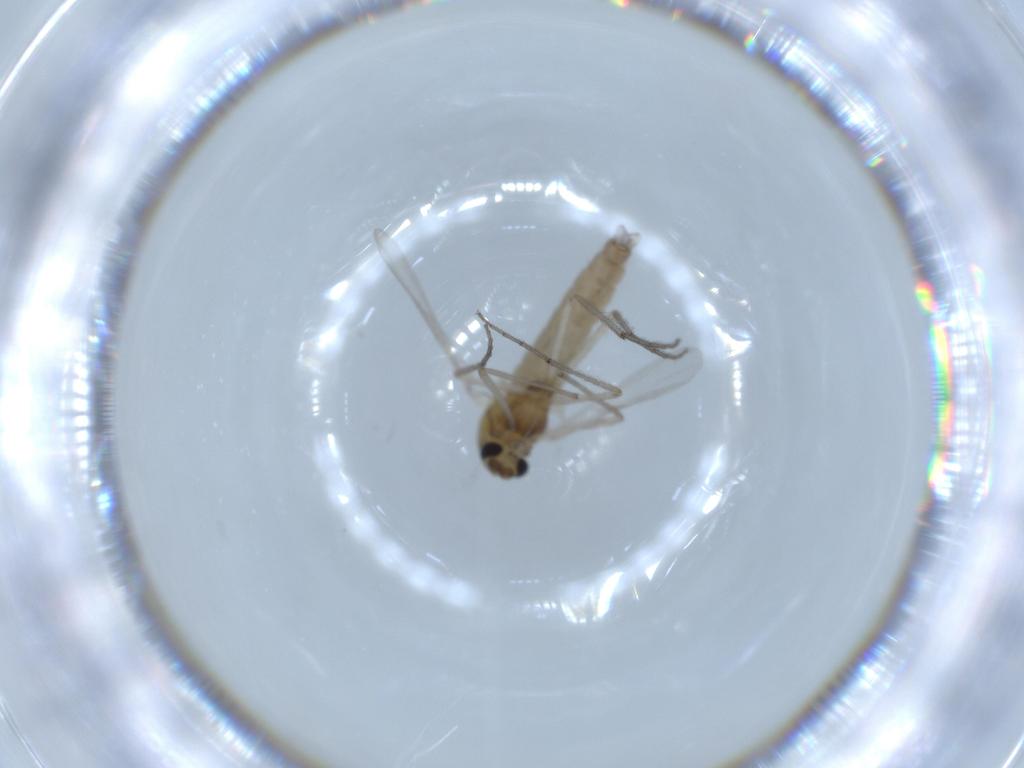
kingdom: Animalia
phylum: Arthropoda
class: Insecta
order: Diptera
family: Chironomidae
